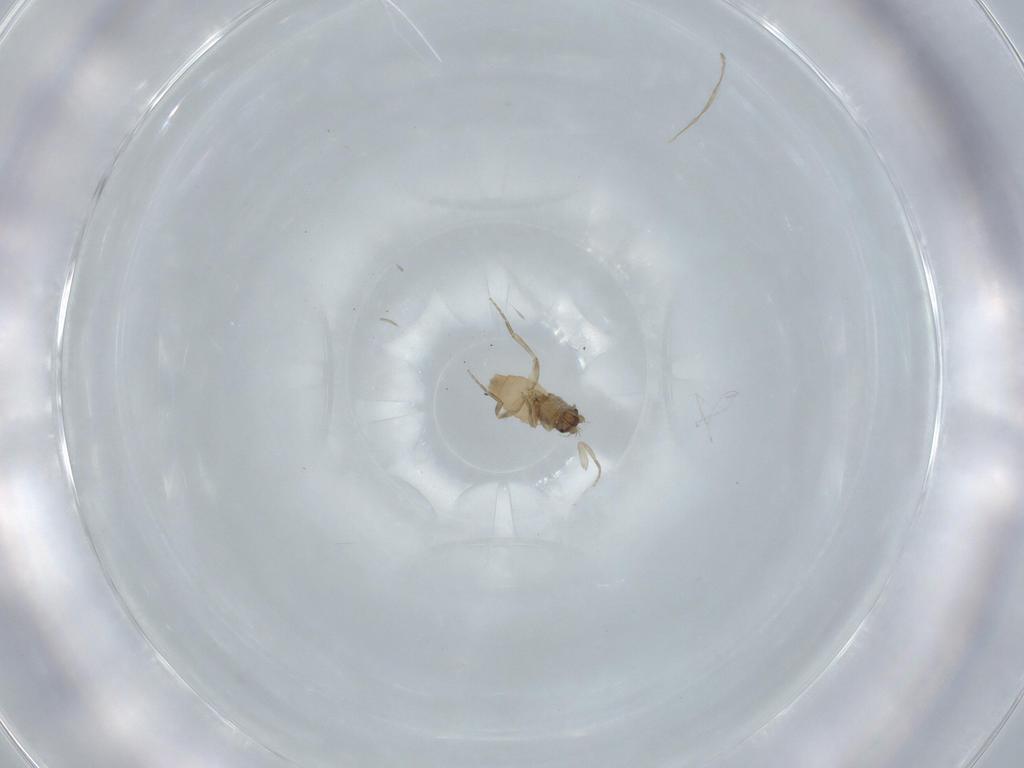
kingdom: Animalia
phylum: Arthropoda
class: Insecta
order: Diptera
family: Phoridae
